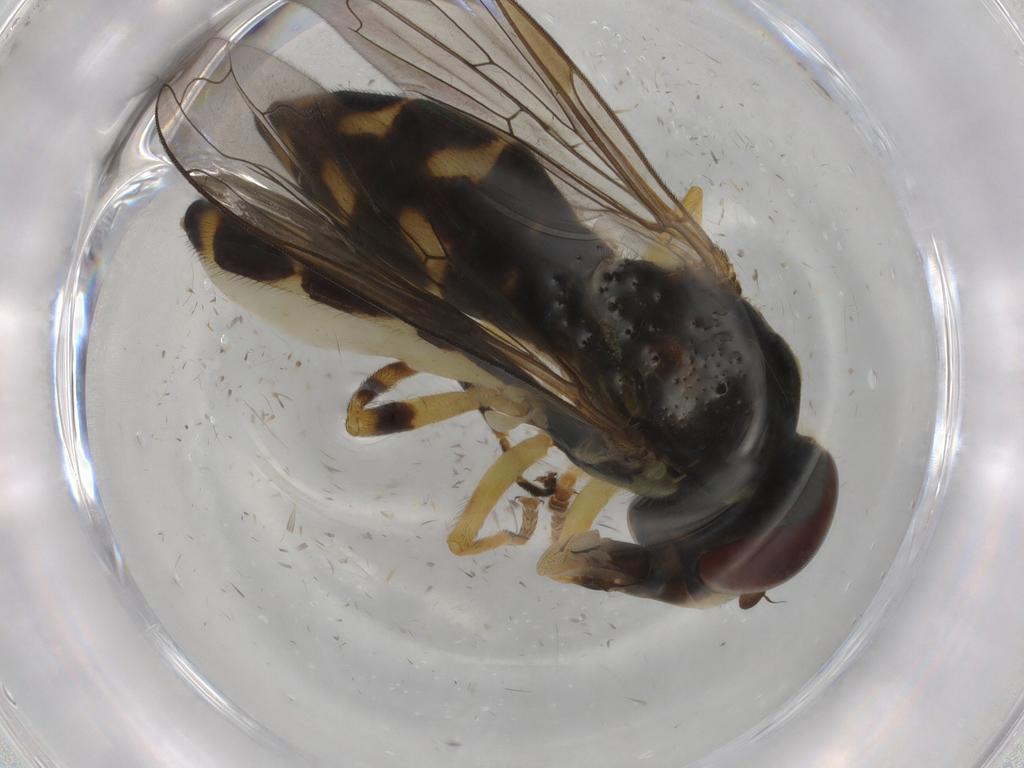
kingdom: Animalia
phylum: Arthropoda
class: Insecta
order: Diptera
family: Syrphidae
